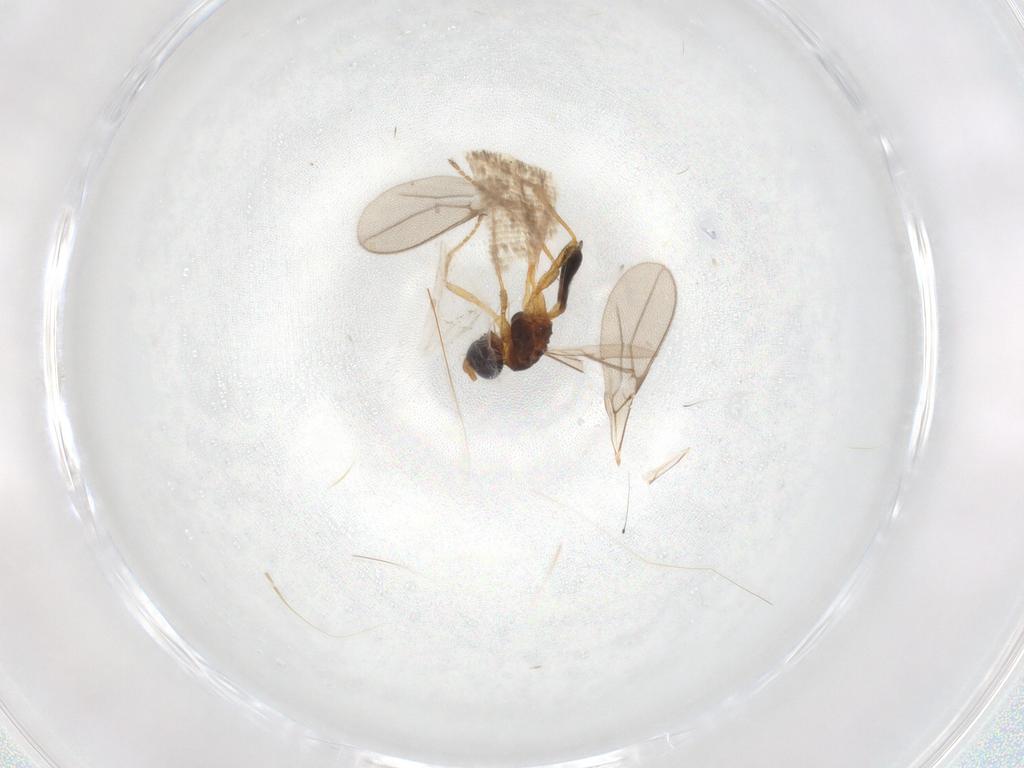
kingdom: Animalia
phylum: Arthropoda
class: Insecta
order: Hymenoptera
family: Braconidae
